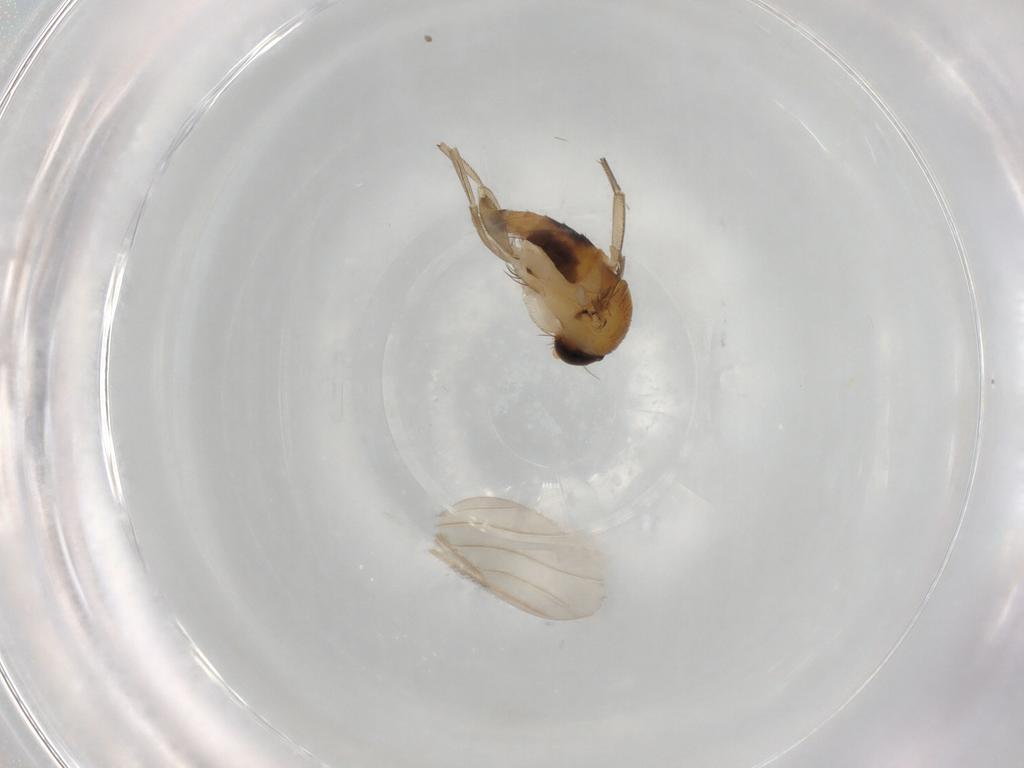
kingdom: Animalia
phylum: Arthropoda
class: Insecta
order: Diptera
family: Phoridae
